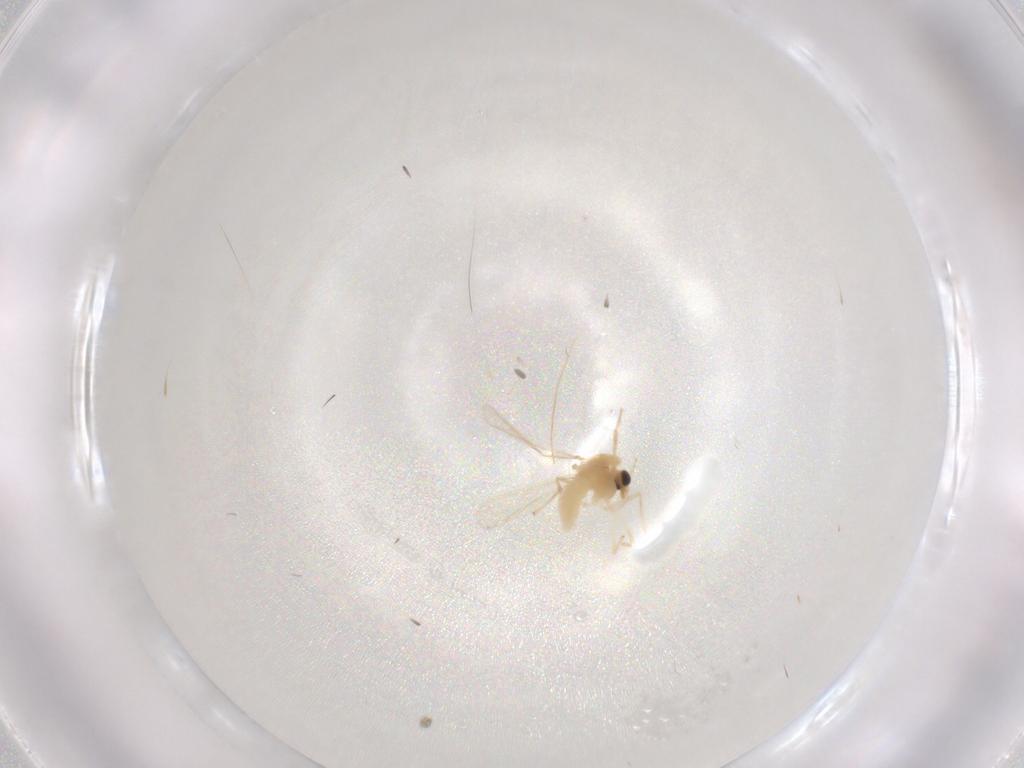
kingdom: Animalia
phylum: Arthropoda
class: Insecta
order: Diptera
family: Chironomidae
